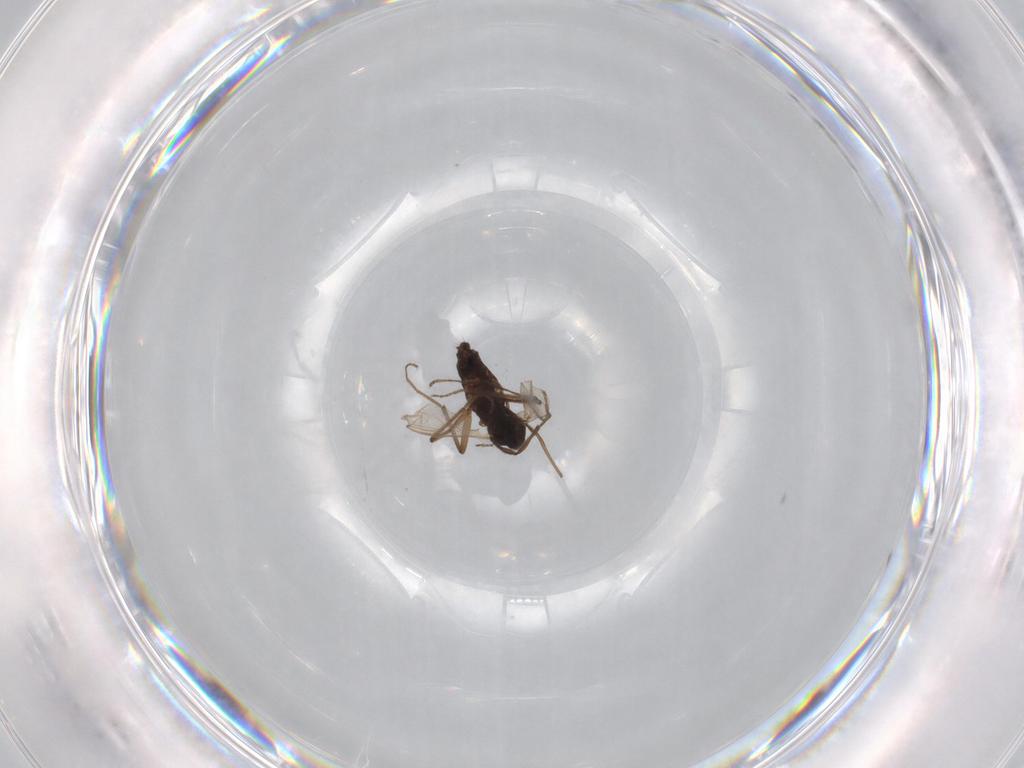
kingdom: Animalia
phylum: Arthropoda
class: Insecta
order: Diptera
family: Chironomidae
